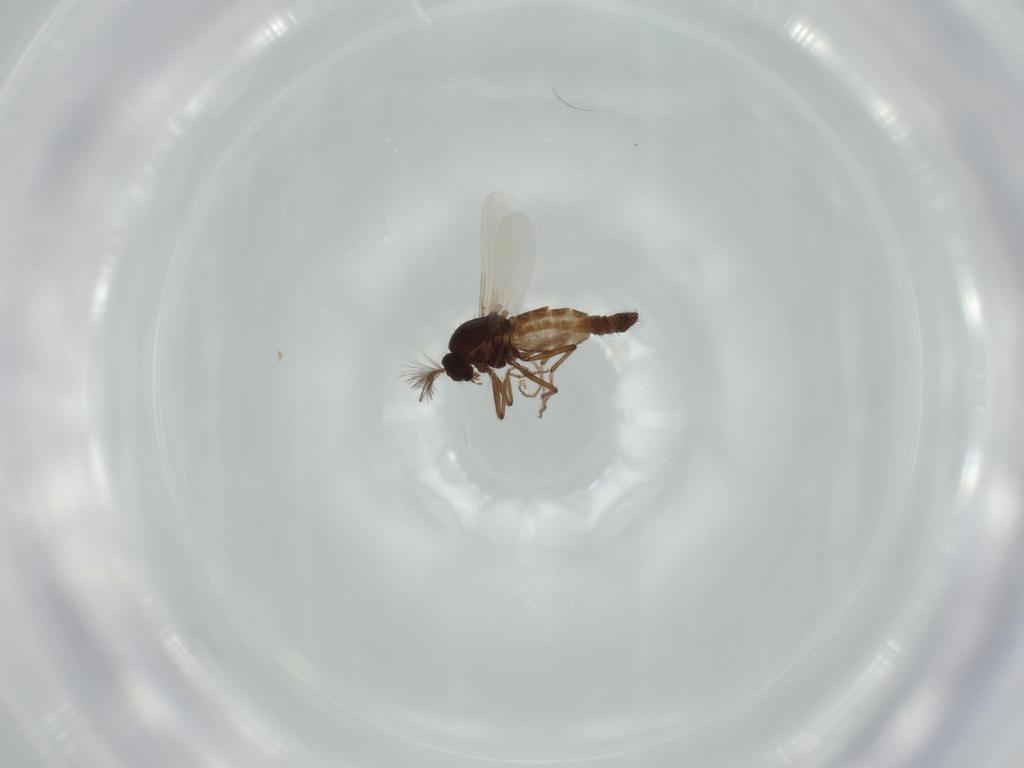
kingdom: Animalia
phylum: Arthropoda
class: Insecta
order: Diptera
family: Ceratopogonidae
